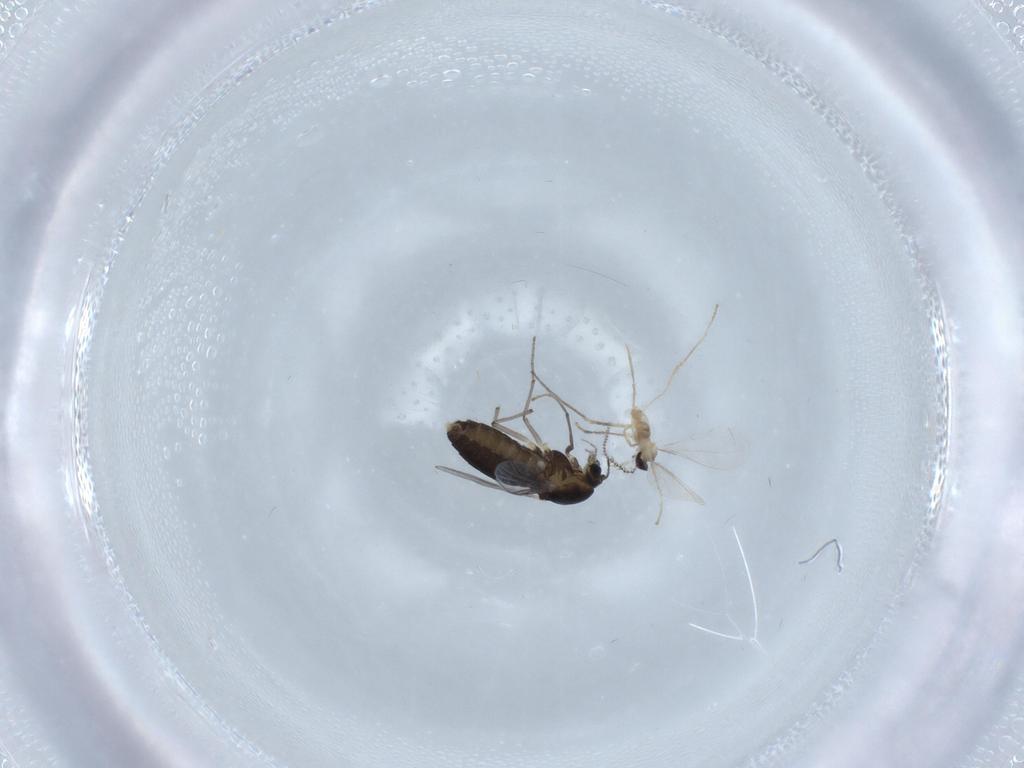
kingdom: Animalia
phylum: Arthropoda
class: Insecta
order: Diptera
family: Chironomidae
